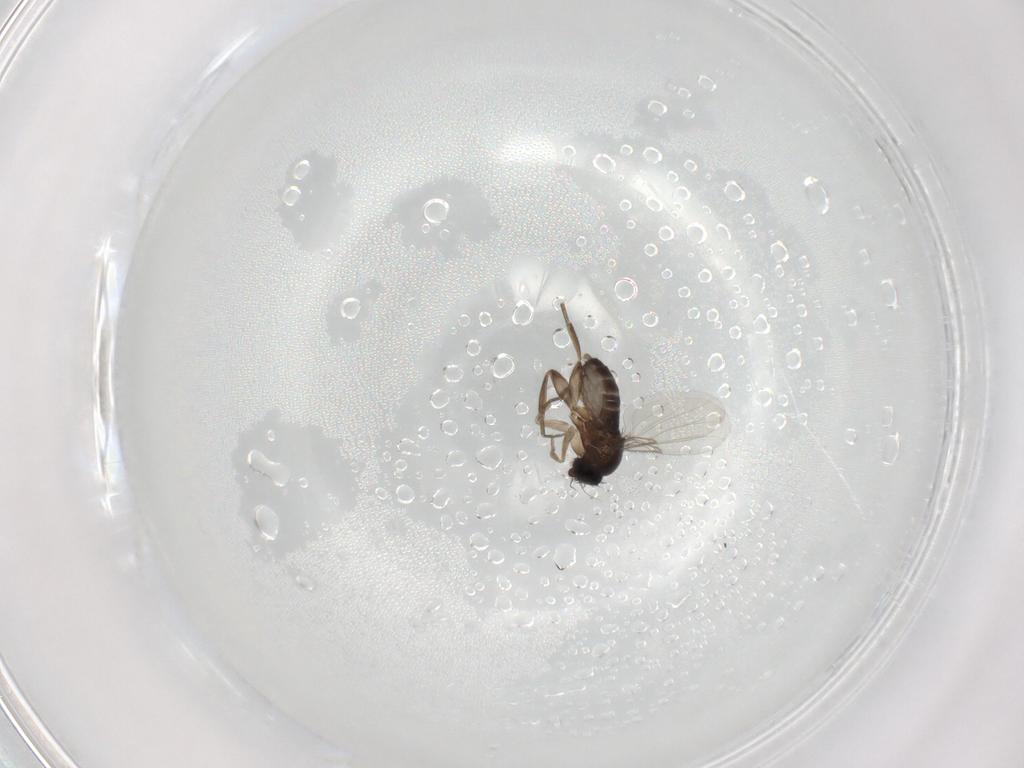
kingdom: Animalia
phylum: Arthropoda
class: Insecta
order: Diptera
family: Phoridae
